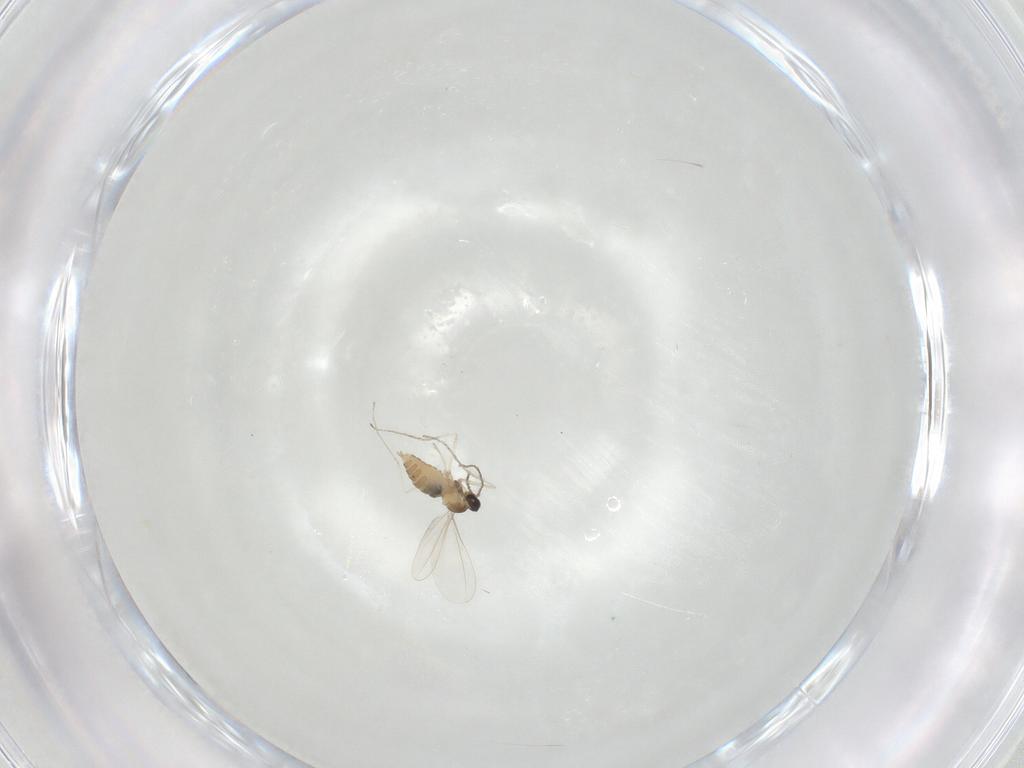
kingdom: Animalia
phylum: Arthropoda
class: Insecta
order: Diptera
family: Cecidomyiidae
